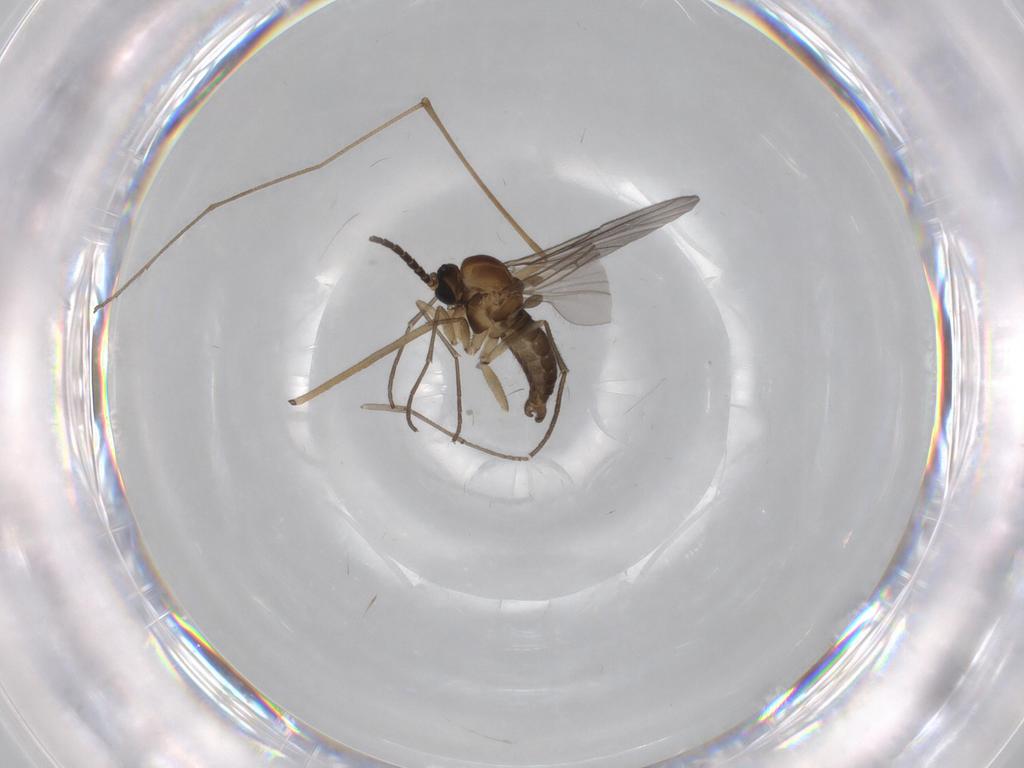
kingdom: Animalia
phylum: Arthropoda
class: Insecta
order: Diptera
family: Sciaridae
